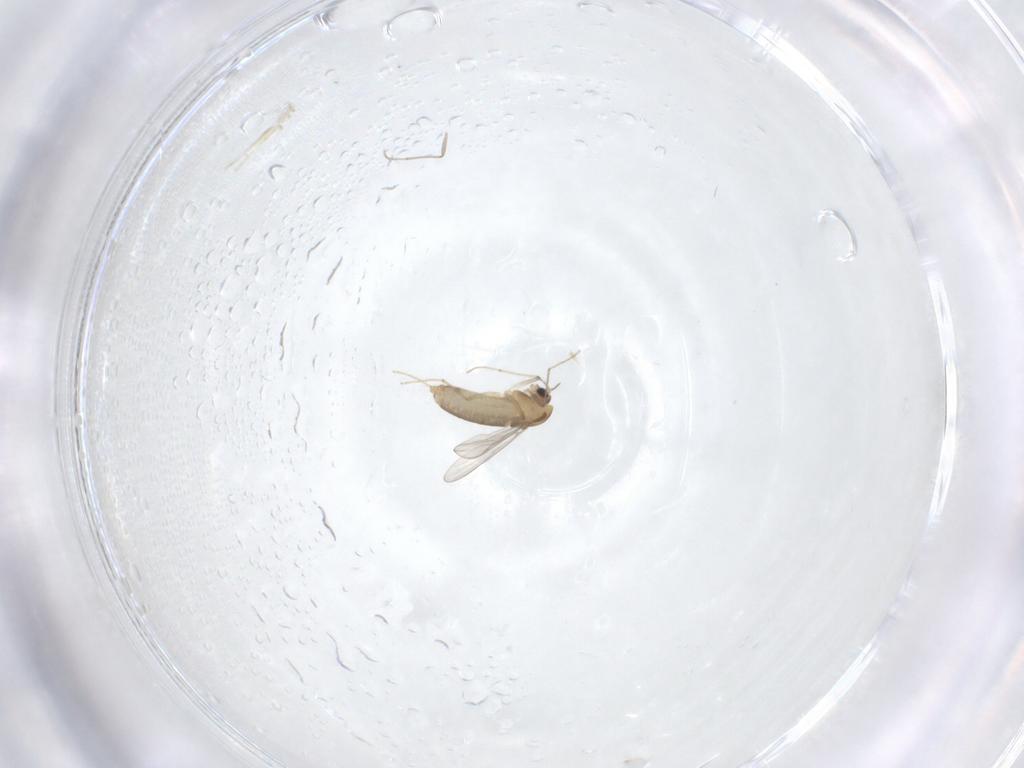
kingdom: Animalia
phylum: Arthropoda
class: Insecta
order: Diptera
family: Chironomidae
